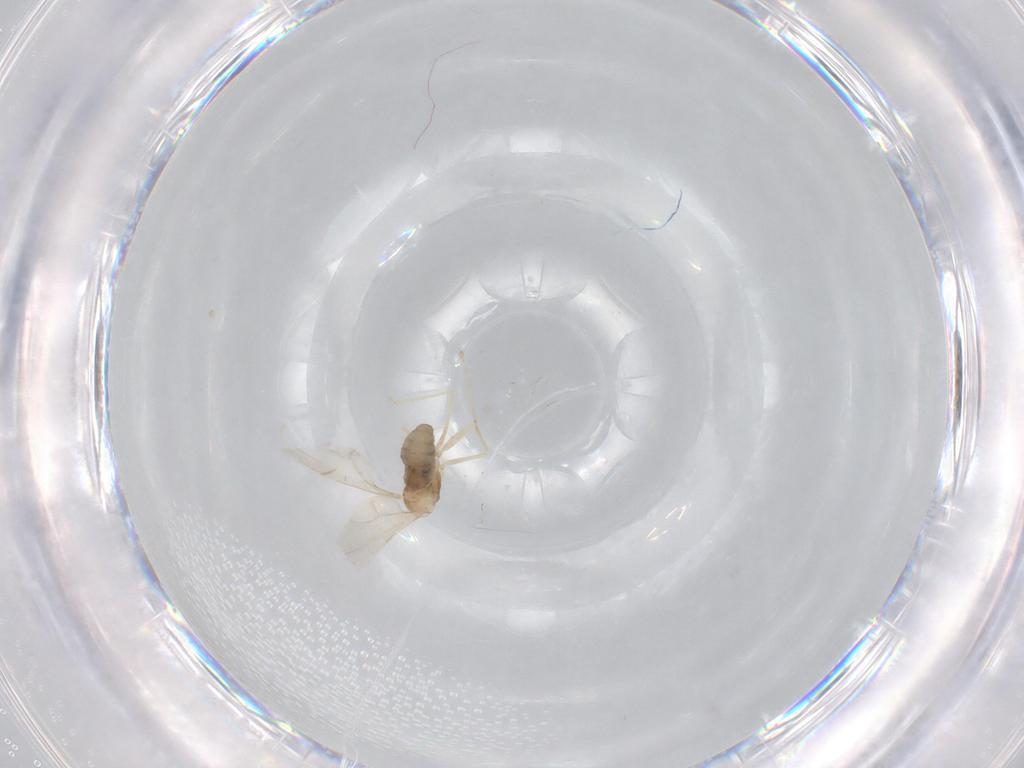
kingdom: Animalia
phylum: Arthropoda
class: Insecta
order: Diptera
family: Cecidomyiidae
